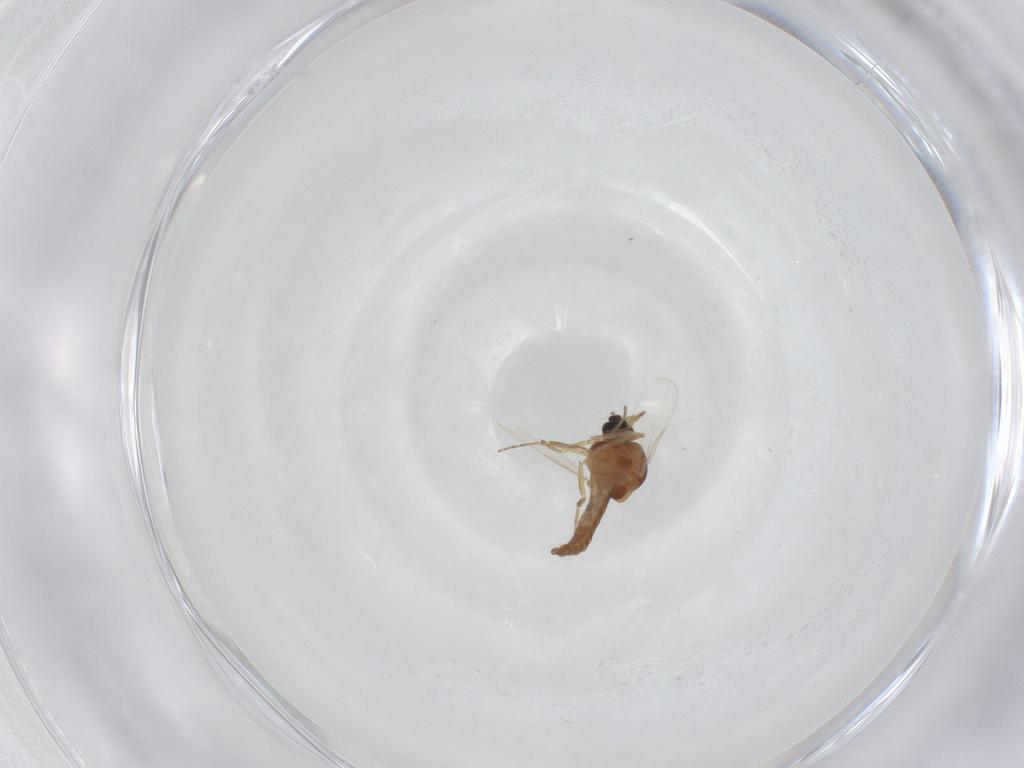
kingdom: Animalia
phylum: Arthropoda
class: Insecta
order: Diptera
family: Ceratopogonidae
